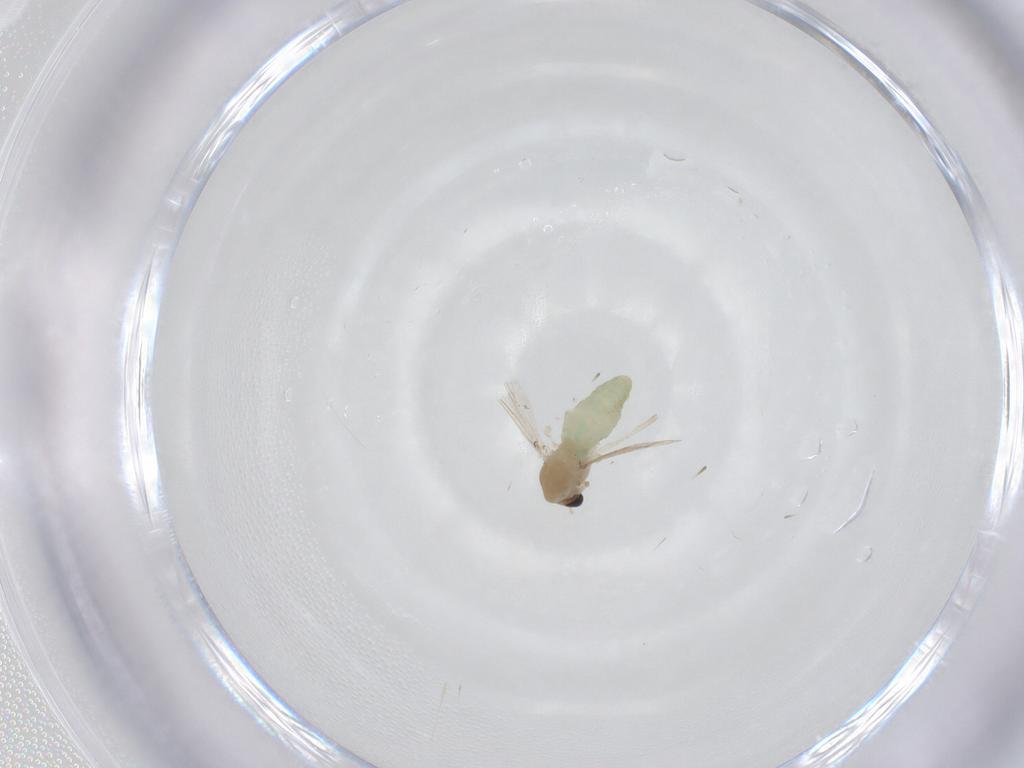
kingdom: Animalia
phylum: Arthropoda
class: Insecta
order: Diptera
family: Chironomidae
